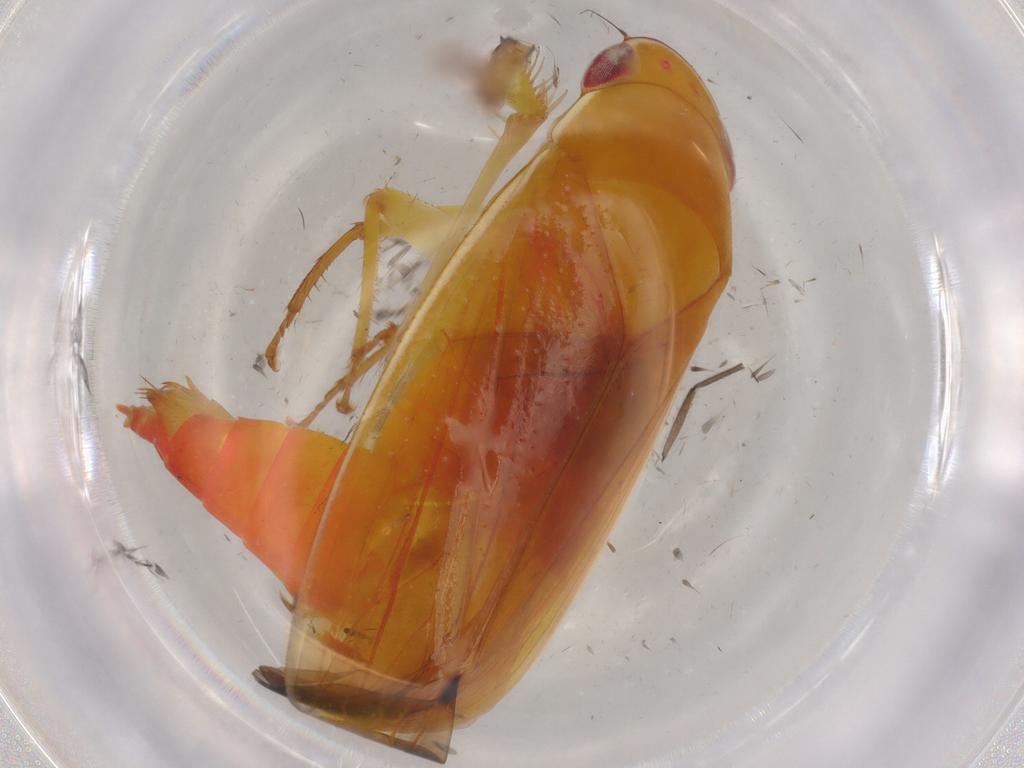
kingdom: Animalia
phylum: Arthropoda
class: Insecta
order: Hemiptera
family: Cicadellidae
